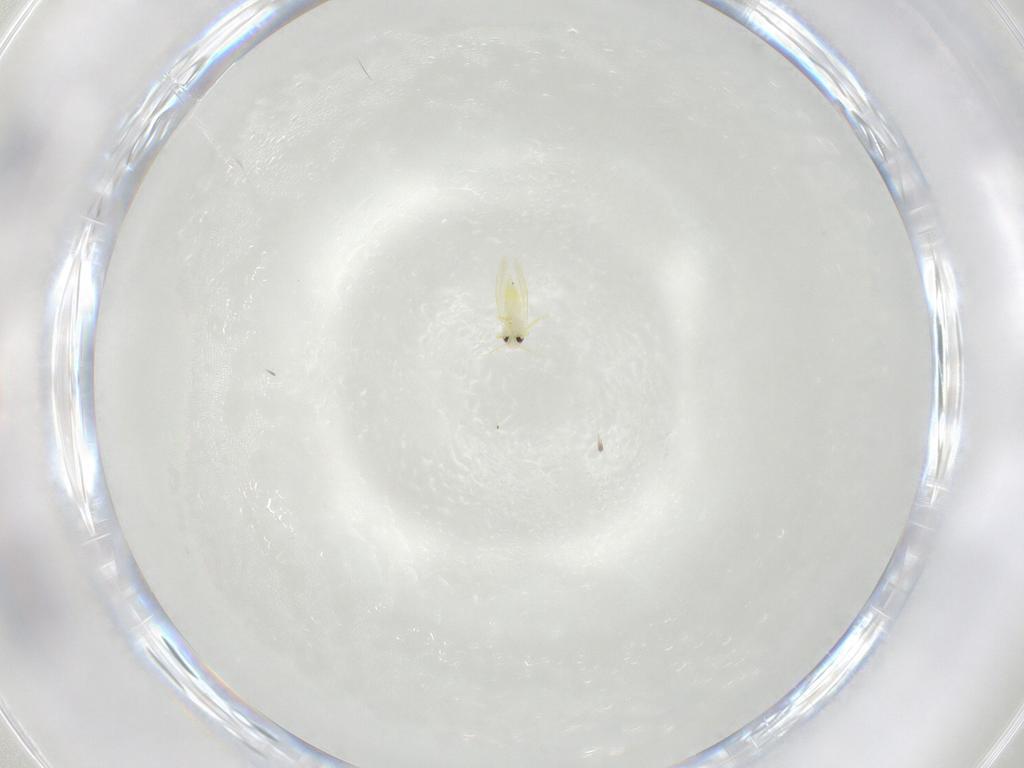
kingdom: Animalia
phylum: Arthropoda
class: Insecta
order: Hemiptera
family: Aleyrodidae
